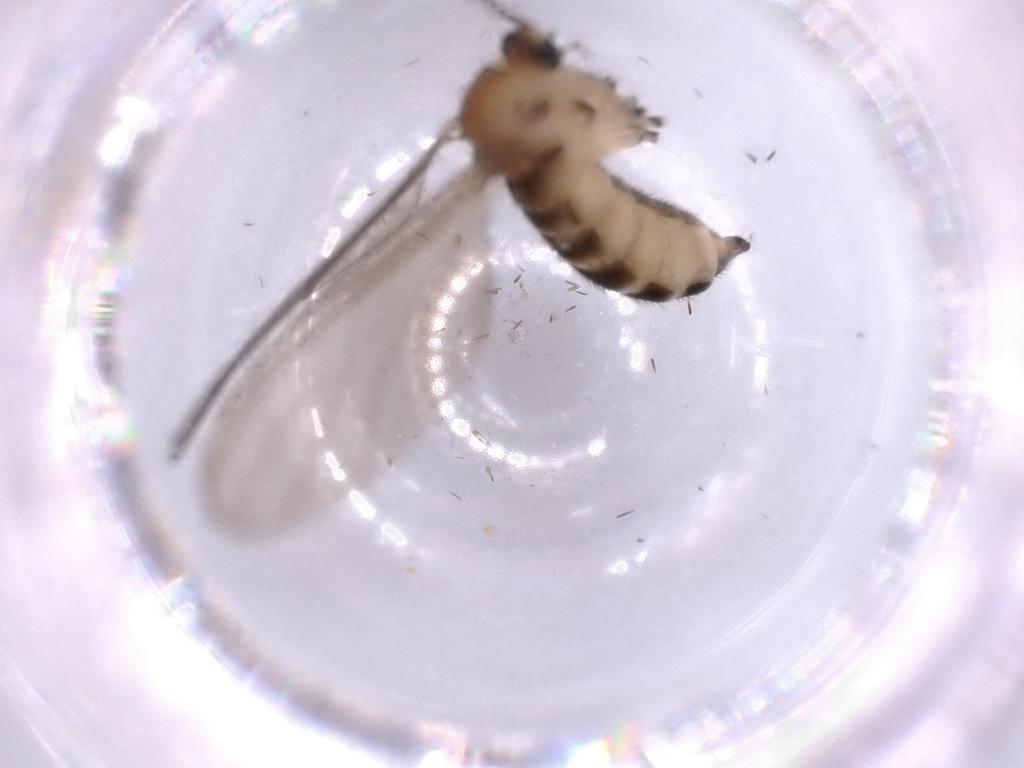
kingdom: Animalia
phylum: Arthropoda
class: Insecta
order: Diptera
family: Sciaridae
